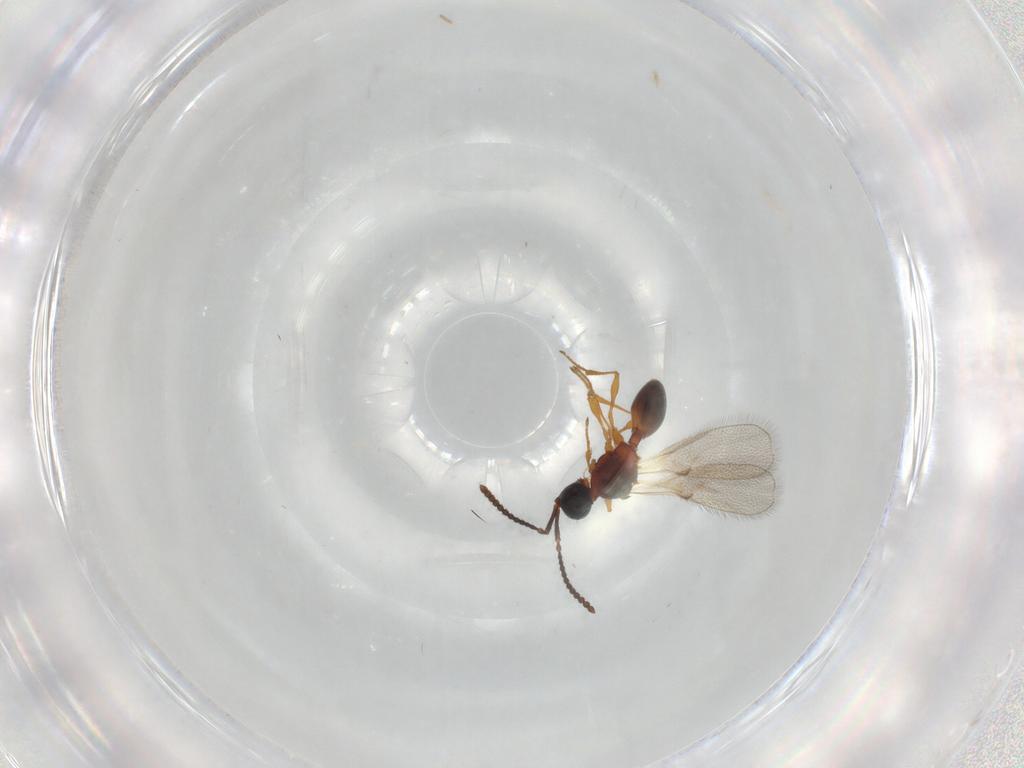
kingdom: Animalia
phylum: Arthropoda
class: Insecta
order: Hymenoptera
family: Diapriidae
